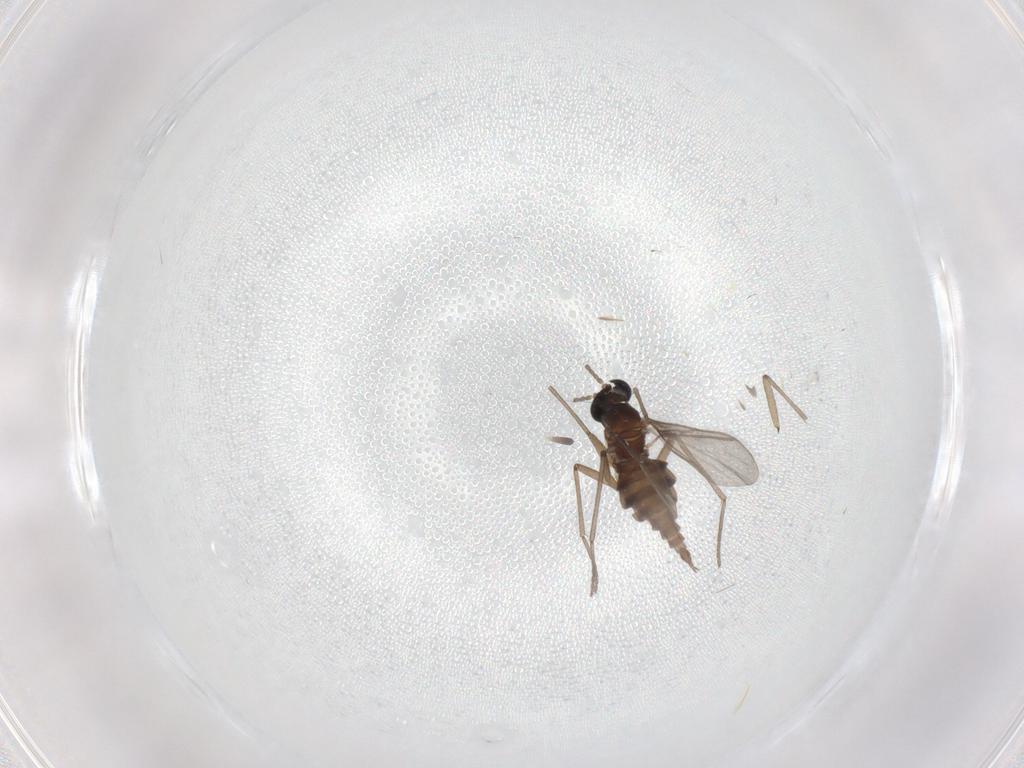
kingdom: Animalia
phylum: Arthropoda
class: Insecta
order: Diptera
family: Sciaridae
